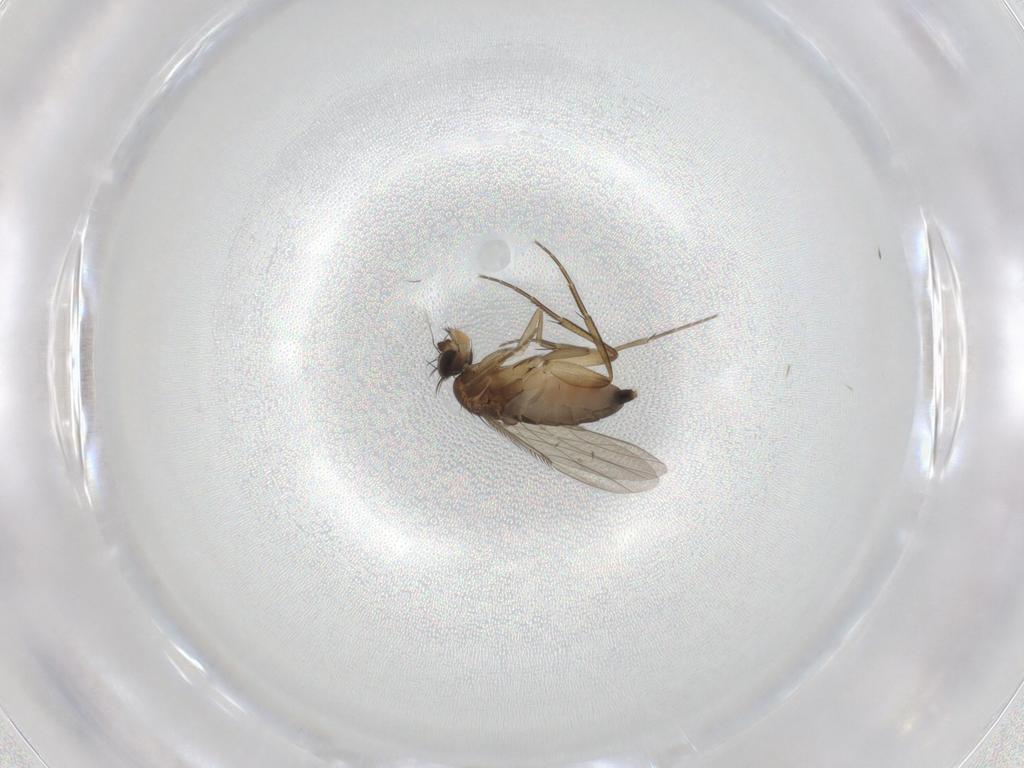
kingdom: Animalia
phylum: Arthropoda
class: Insecta
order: Diptera
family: Phoridae
